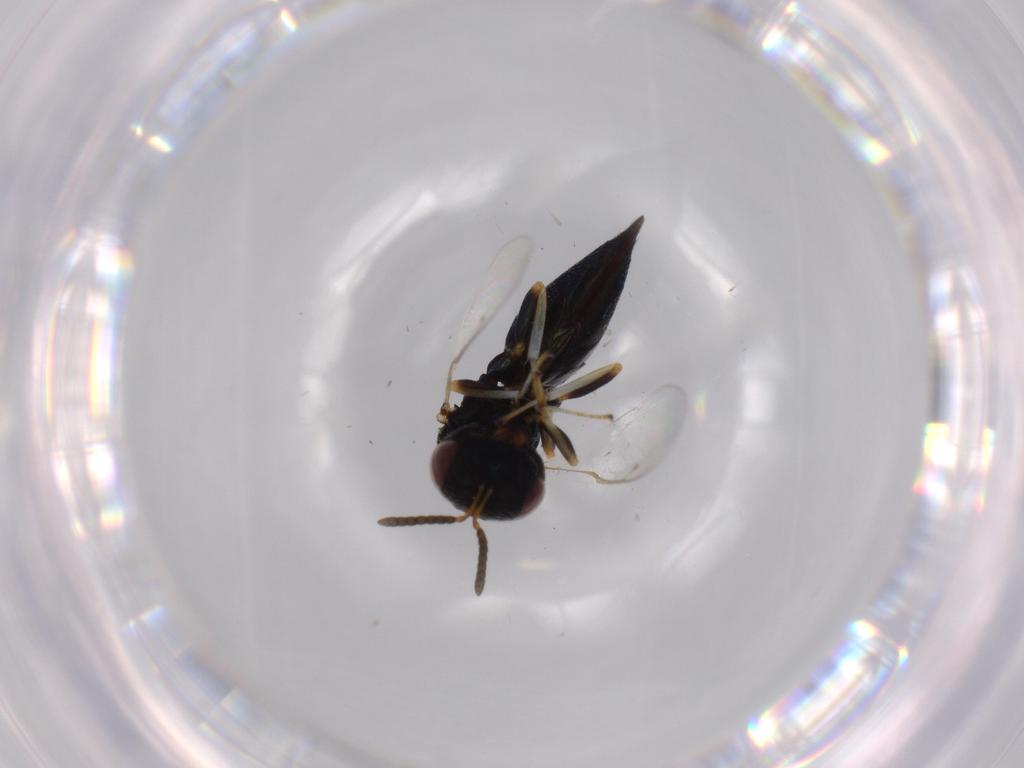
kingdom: Animalia
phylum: Arthropoda
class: Insecta
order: Hymenoptera
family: Pteromalidae
